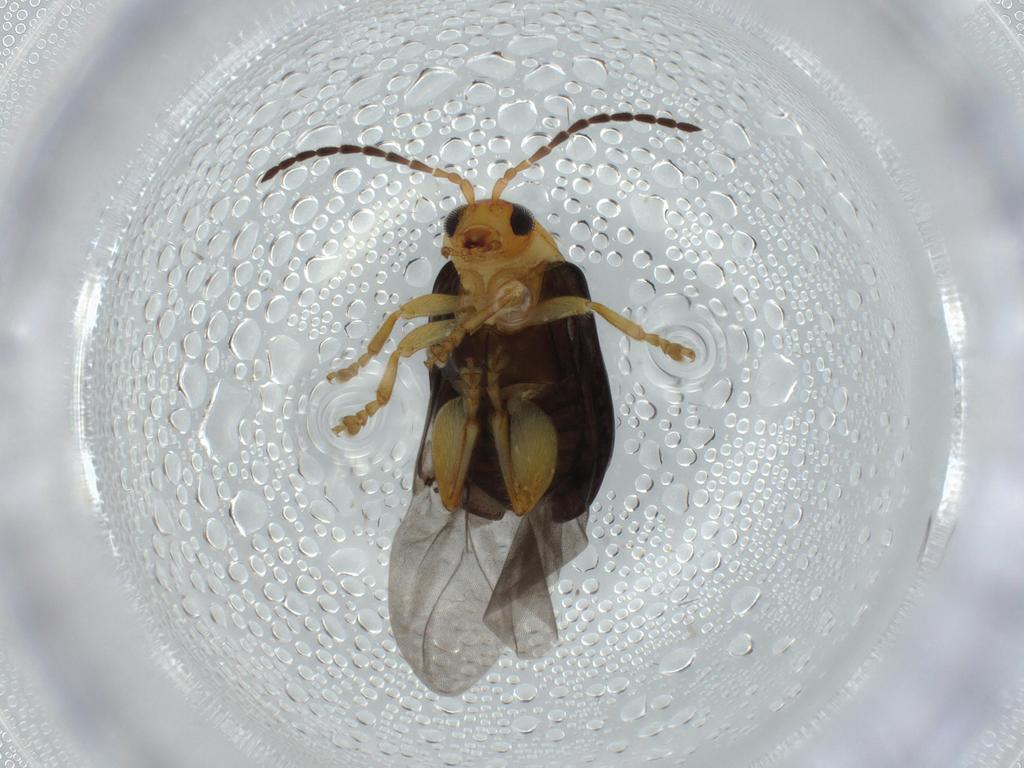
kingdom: Animalia
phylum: Arthropoda
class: Insecta
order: Coleoptera
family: Chrysomelidae
